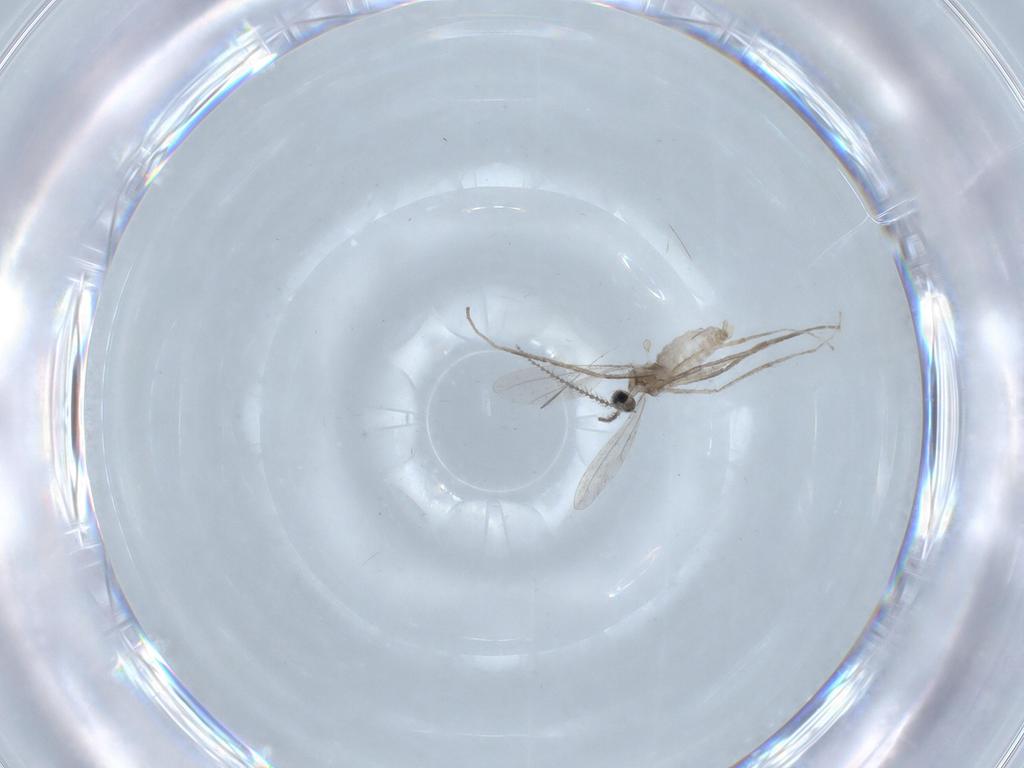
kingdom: Animalia
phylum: Arthropoda
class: Insecta
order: Diptera
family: Cecidomyiidae
